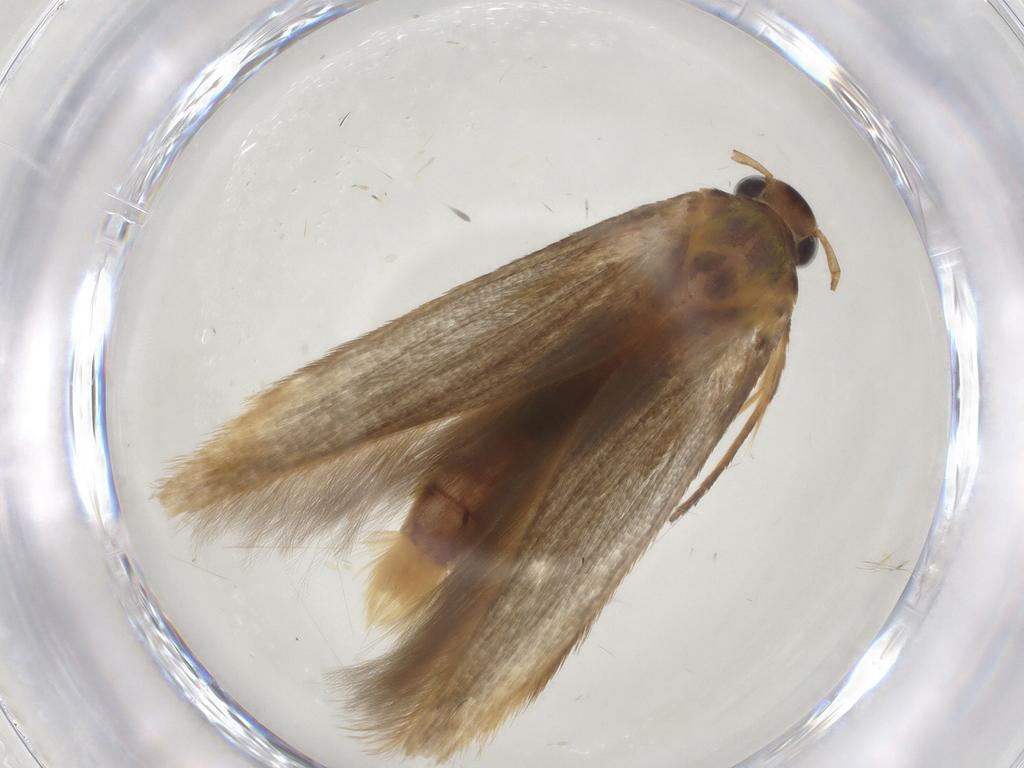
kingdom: Animalia
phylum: Arthropoda
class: Insecta
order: Lepidoptera
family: Stathmopodidae
